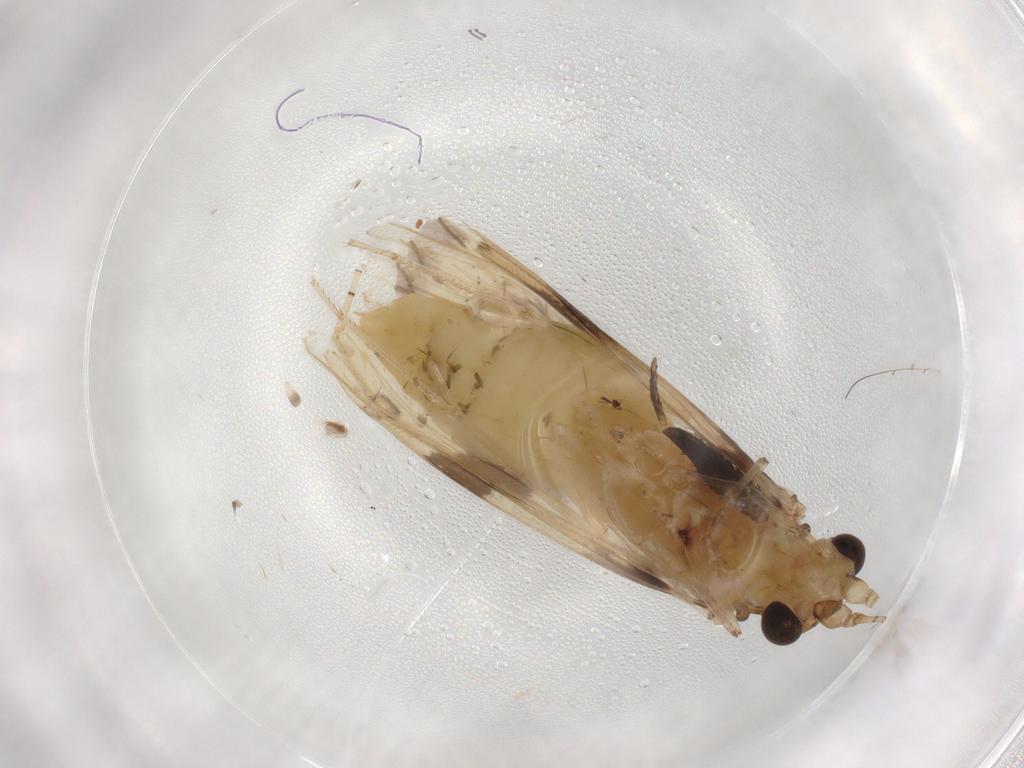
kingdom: Animalia
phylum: Arthropoda
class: Insecta
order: Trichoptera
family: Leptoceridae
